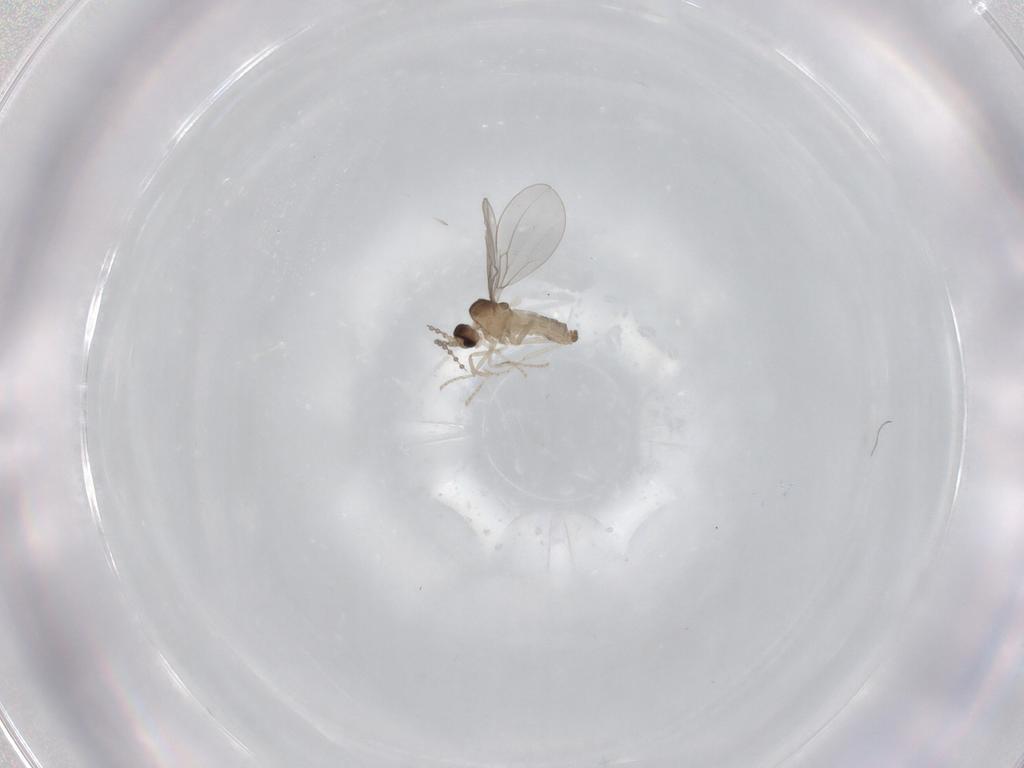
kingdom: Animalia
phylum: Arthropoda
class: Insecta
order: Diptera
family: Cecidomyiidae
